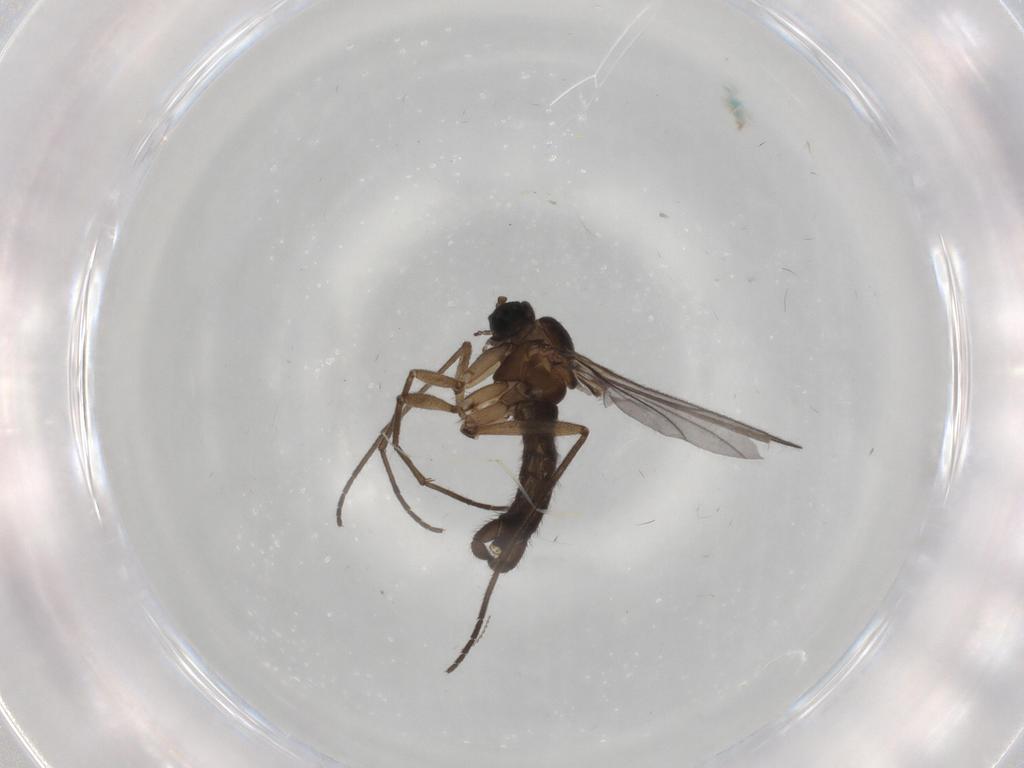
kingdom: Animalia
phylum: Arthropoda
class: Insecta
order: Diptera
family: Sciaridae
